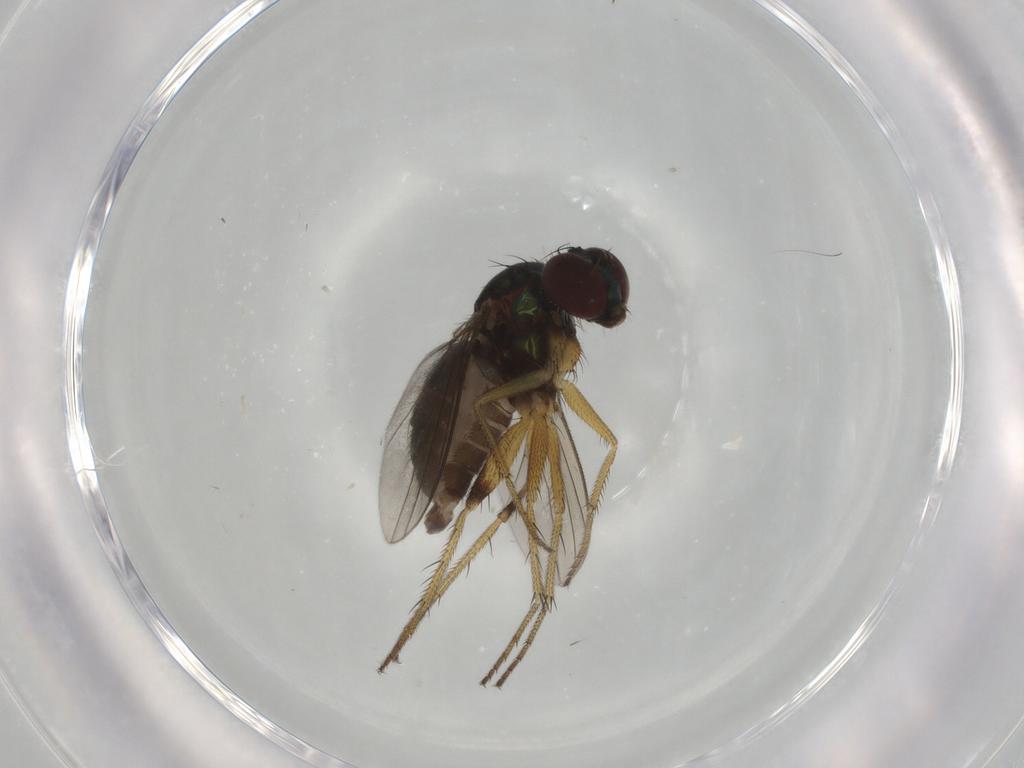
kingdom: Animalia
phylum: Arthropoda
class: Insecta
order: Diptera
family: Dolichopodidae
